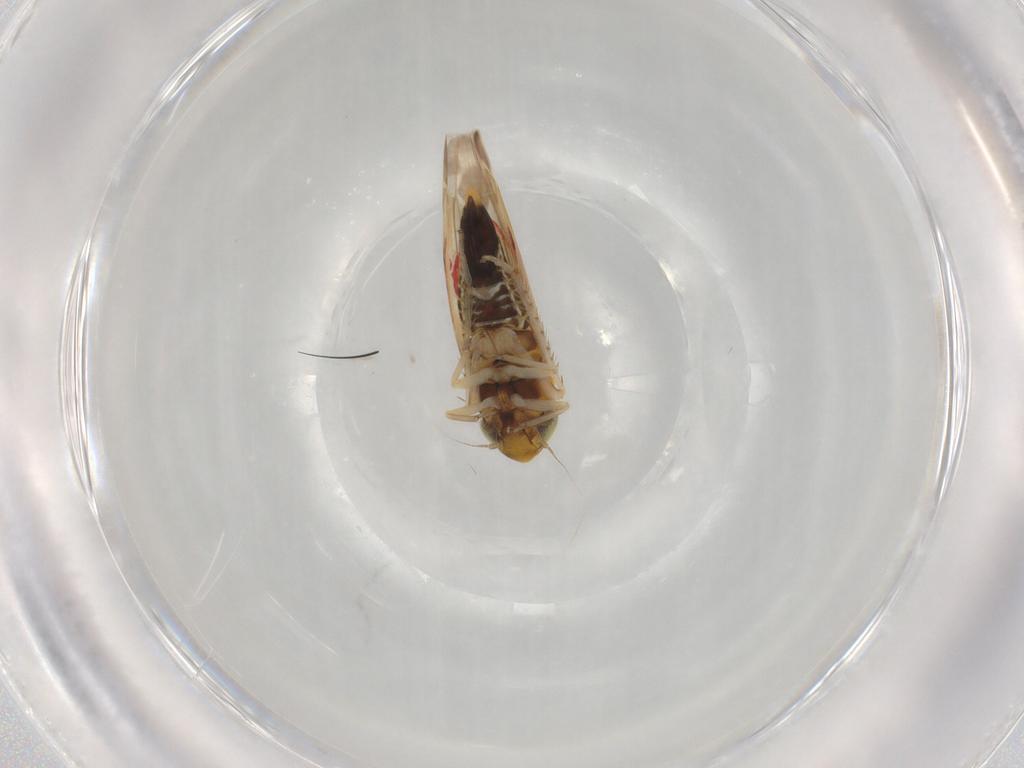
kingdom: Animalia
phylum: Arthropoda
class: Insecta
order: Hemiptera
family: Cicadellidae
